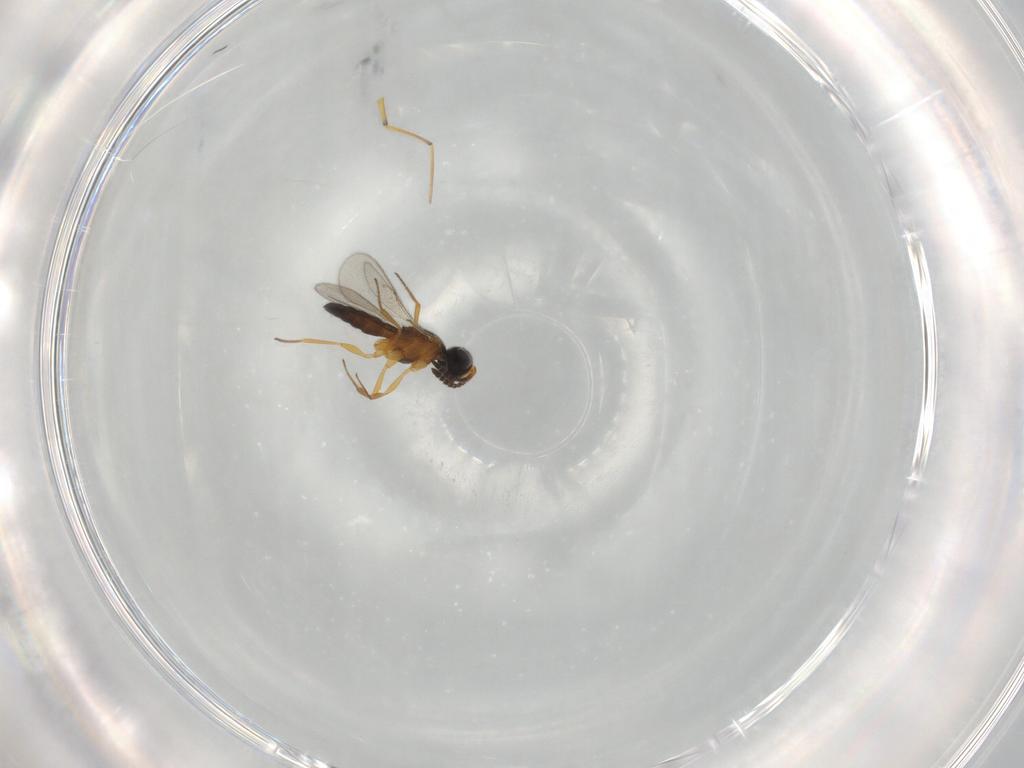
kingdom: Animalia
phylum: Arthropoda
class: Insecta
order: Hymenoptera
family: Scelionidae
